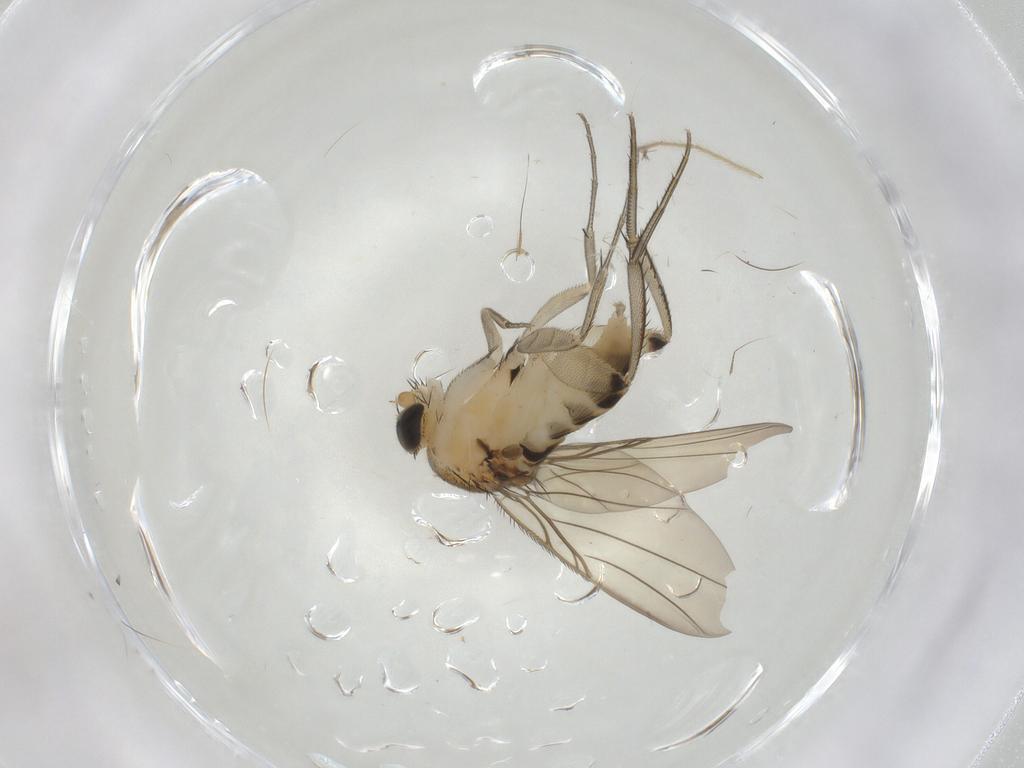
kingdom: Animalia
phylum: Arthropoda
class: Insecta
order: Diptera
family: Phoridae
